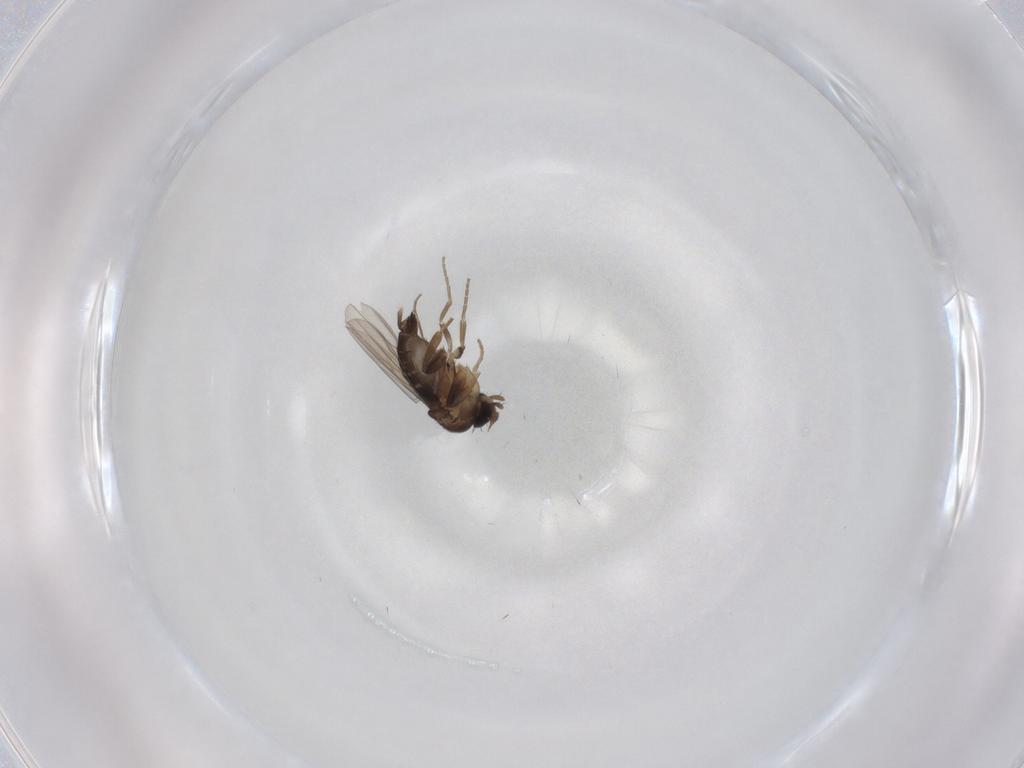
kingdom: Animalia
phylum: Arthropoda
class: Insecta
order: Diptera
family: Phoridae
